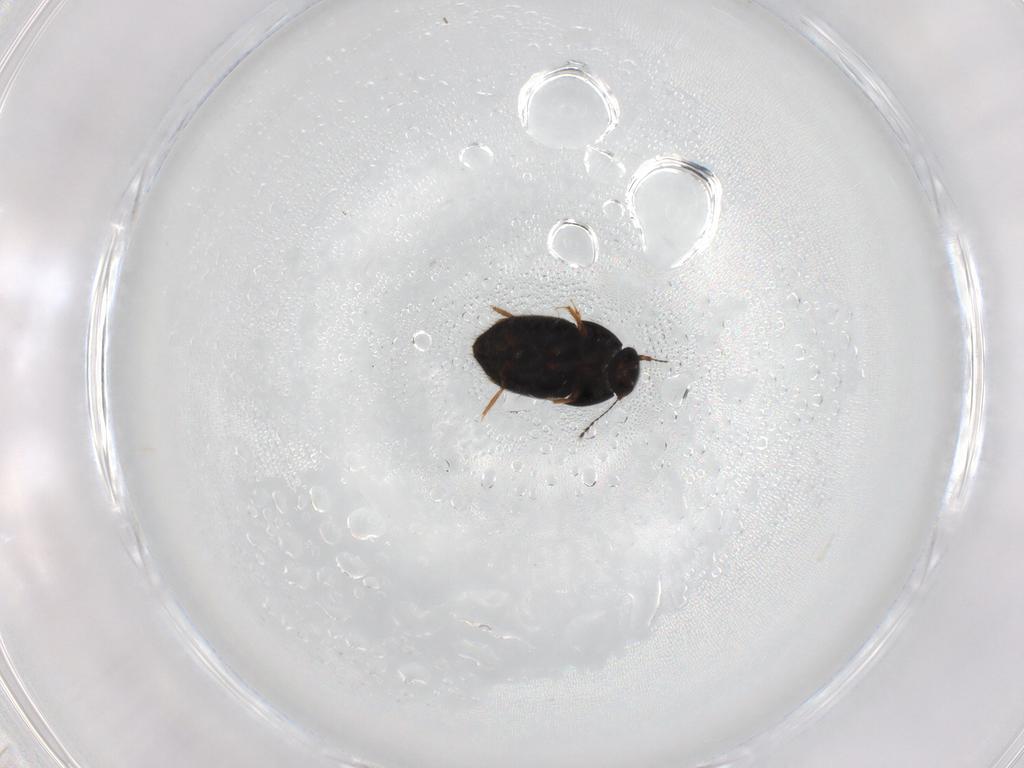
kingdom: Animalia
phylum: Arthropoda
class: Insecta
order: Coleoptera
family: Ptiliidae
